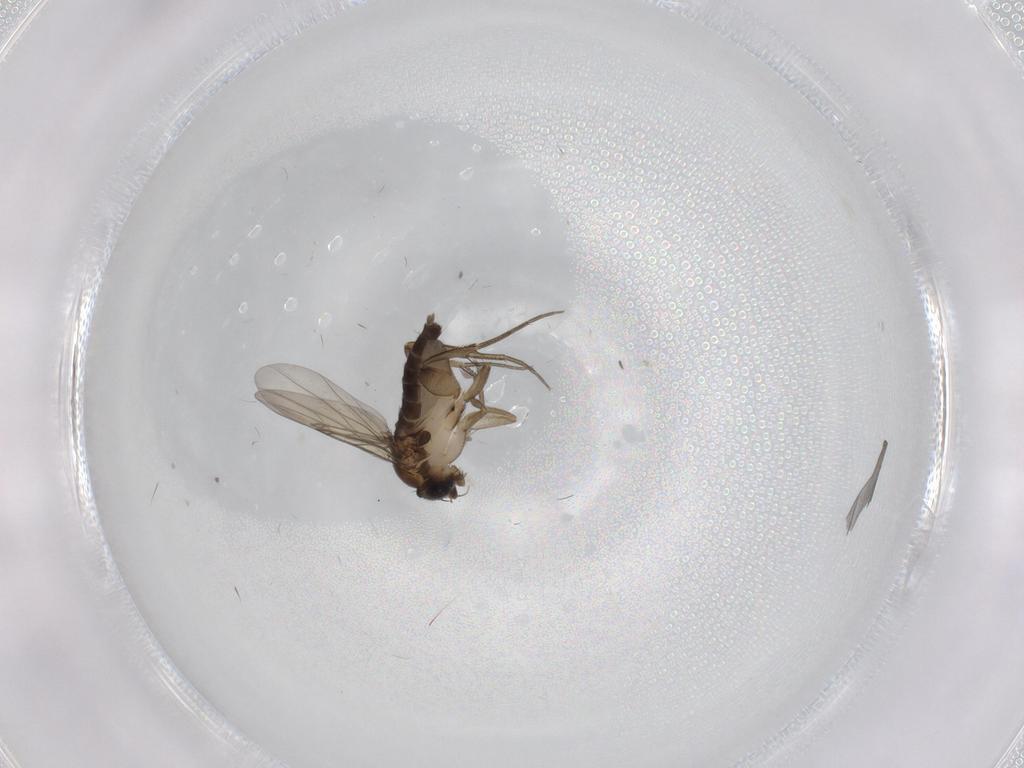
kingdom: Animalia
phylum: Arthropoda
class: Insecta
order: Diptera
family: Phoridae
